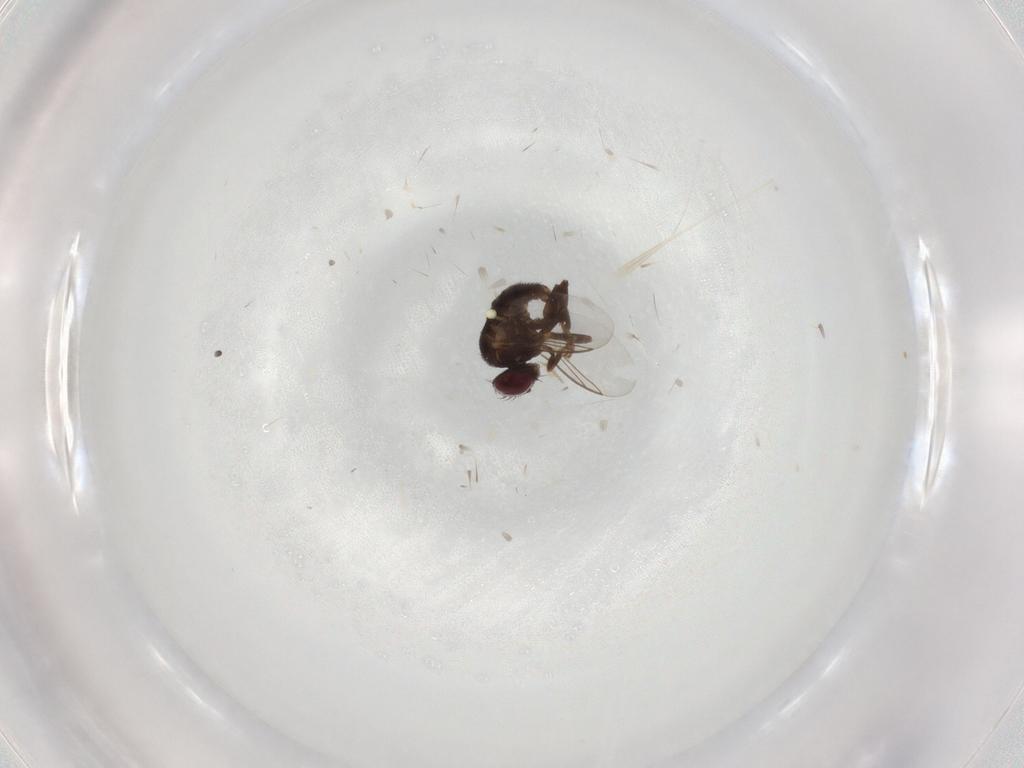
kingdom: Animalia
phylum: Arthropoda
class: Insecta
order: Diptera
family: Agromyzidae
